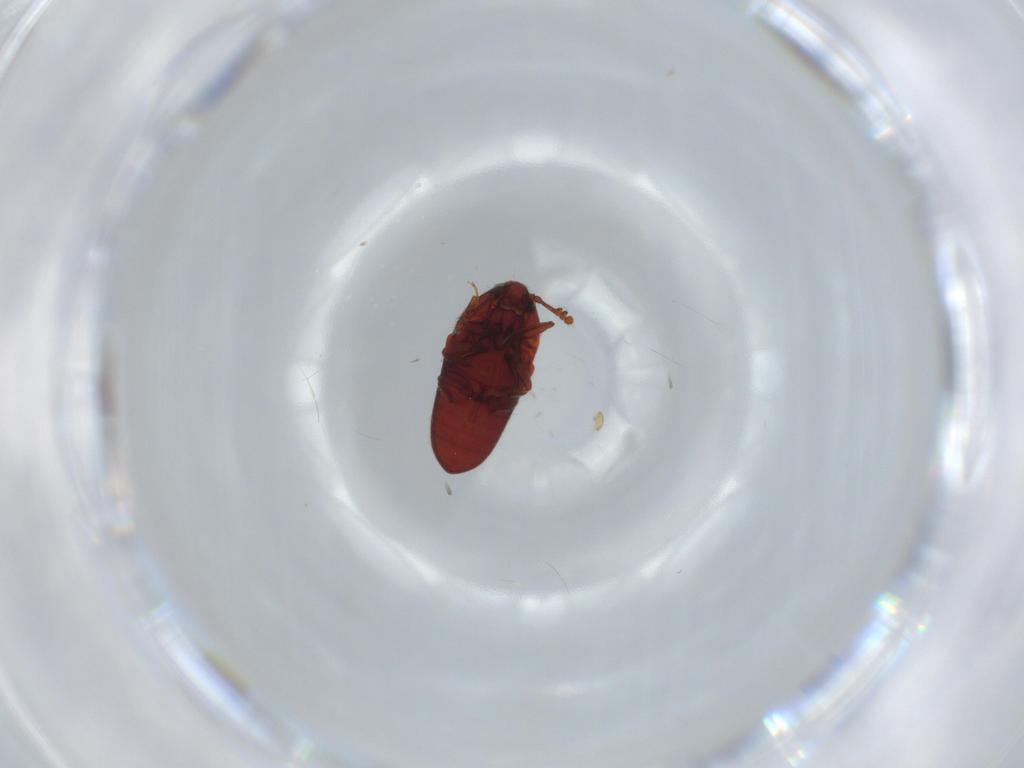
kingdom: Animalia
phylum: Arthropoda
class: Insecta
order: Coleoptera
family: Throscidae
